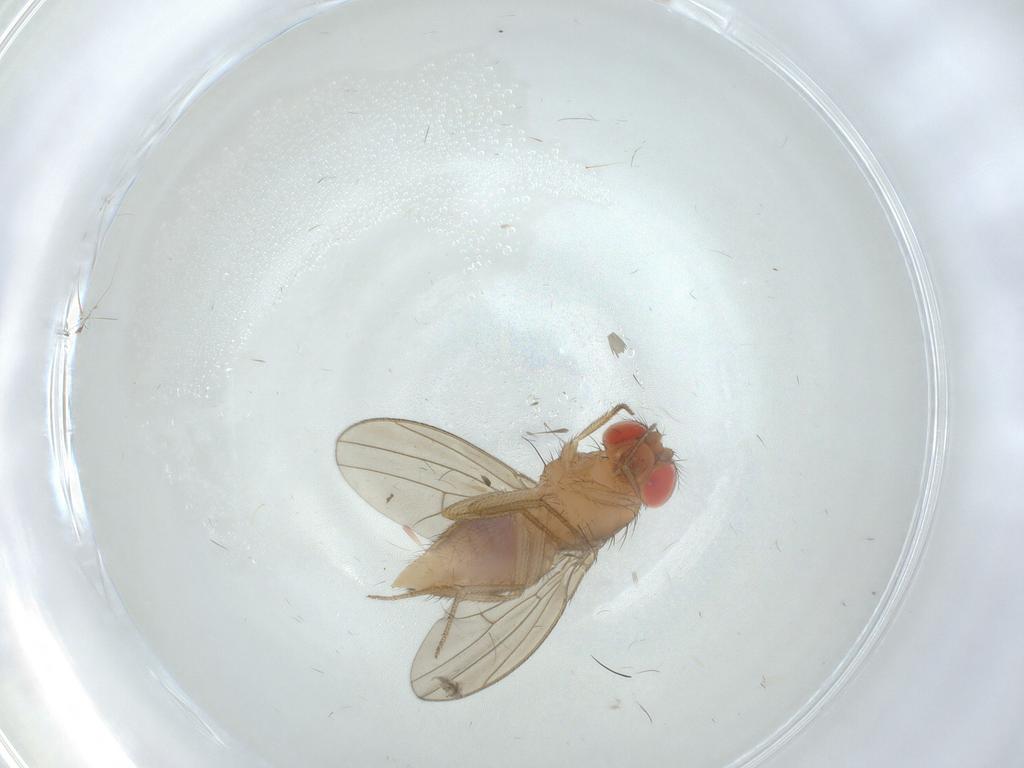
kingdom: Animalia
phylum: Arthropoda
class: Insecta
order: Diptera
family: Drosophilidae
